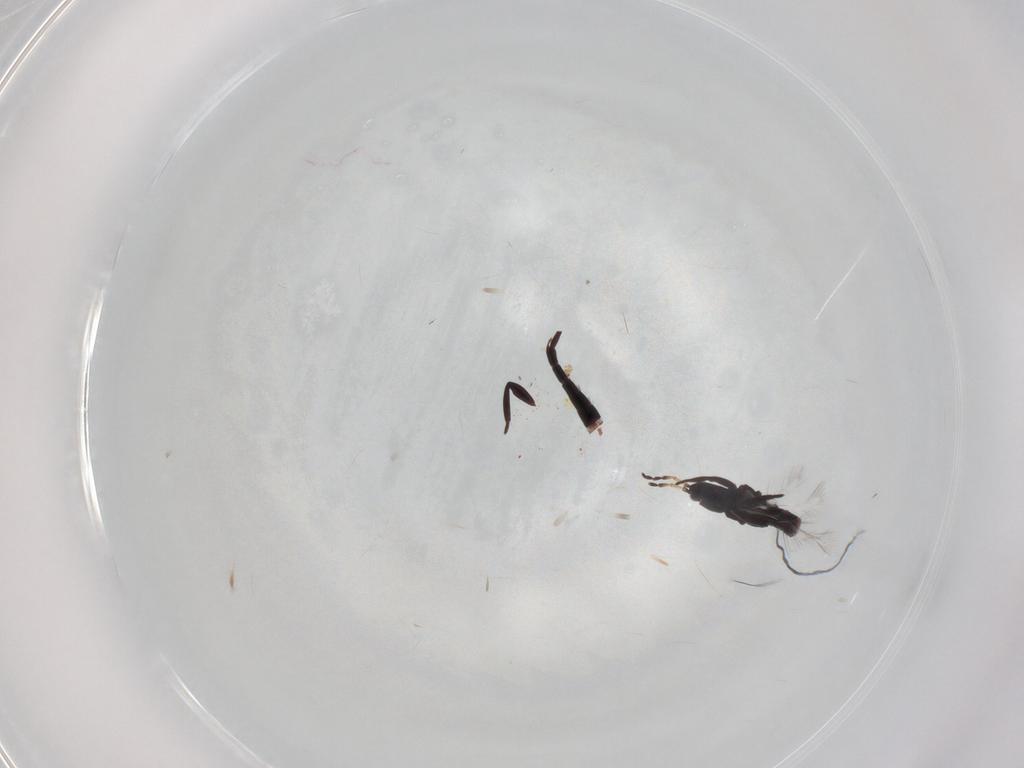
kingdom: Animalia
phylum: Arthropoda
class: Insecta
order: Thysanoptera
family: Phlaeothripidae
